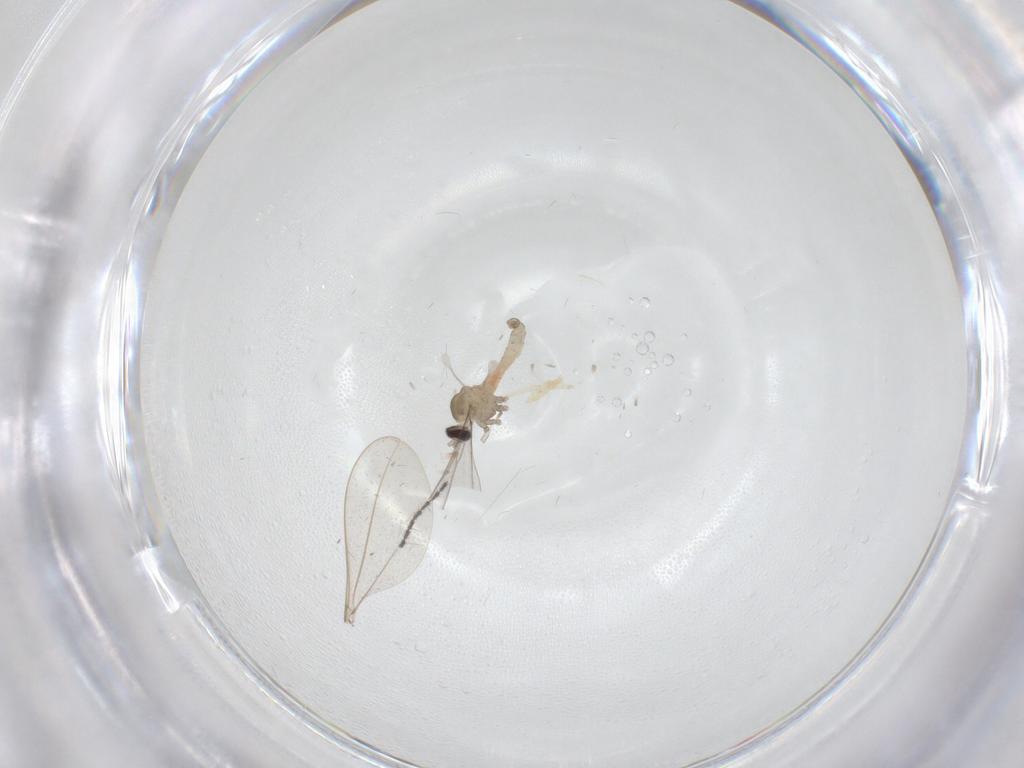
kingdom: Animalia
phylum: Arthropoda
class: Insecta
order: Diptera
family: Cecidomyiidae
